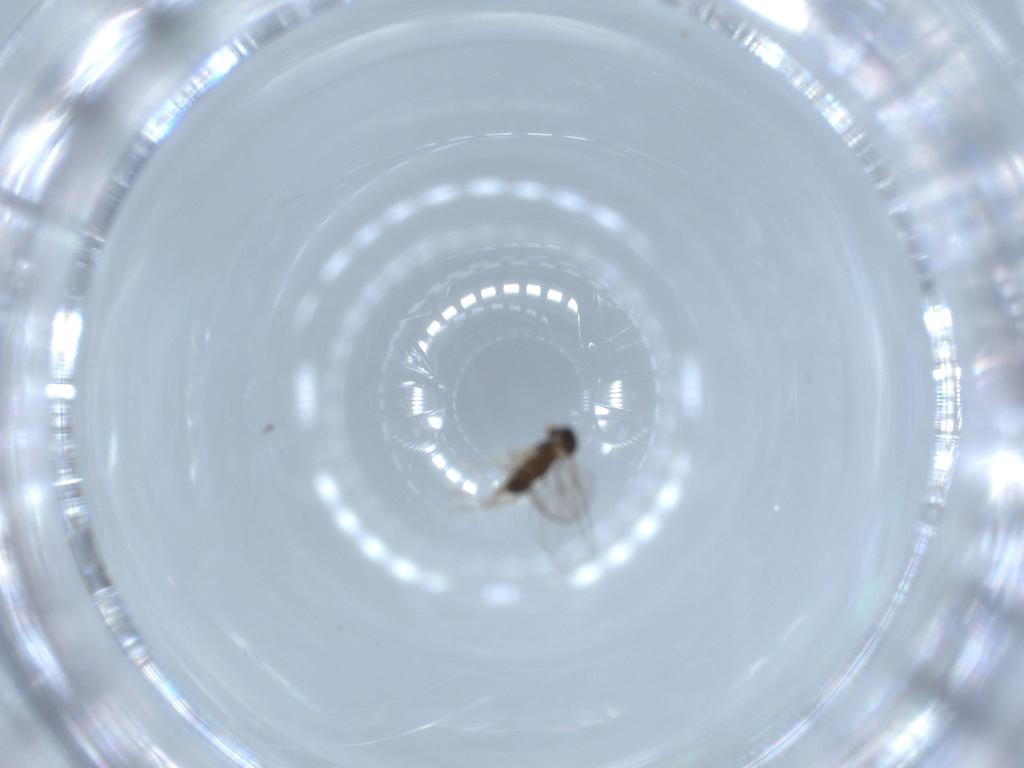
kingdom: Animalia
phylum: Arthropoda
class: Insecta
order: Diptera
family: Cecidomyiidae
